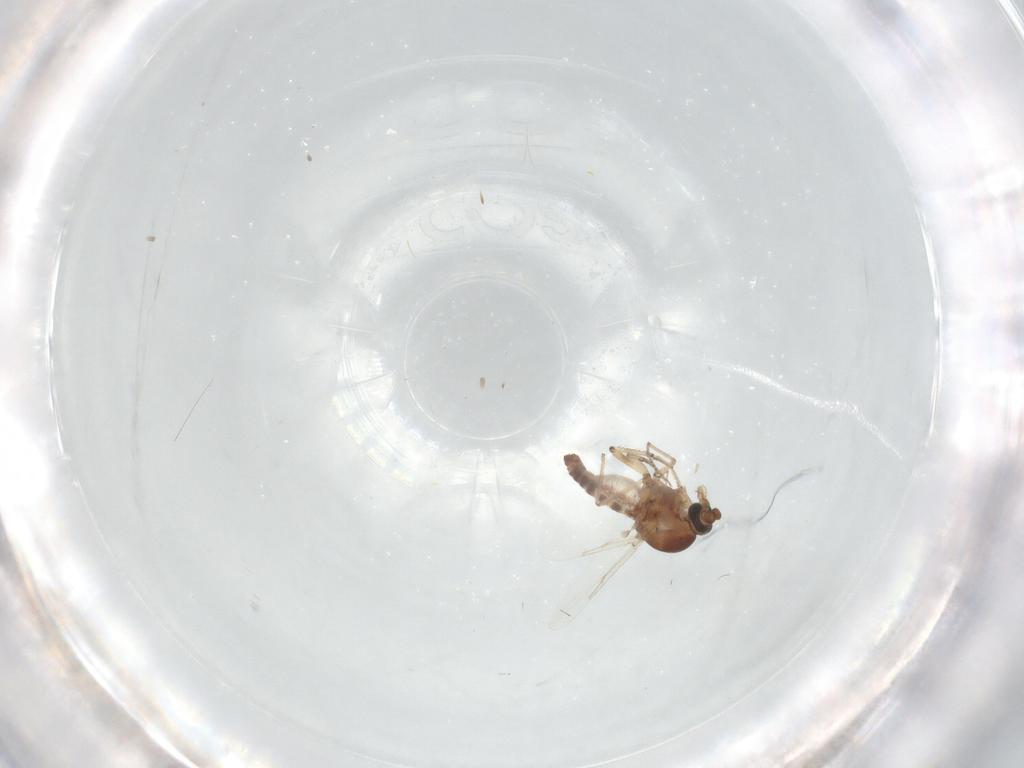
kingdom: Animalia
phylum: Arthropoda
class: Insecta
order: Diptera
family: Ceratopogonidae
